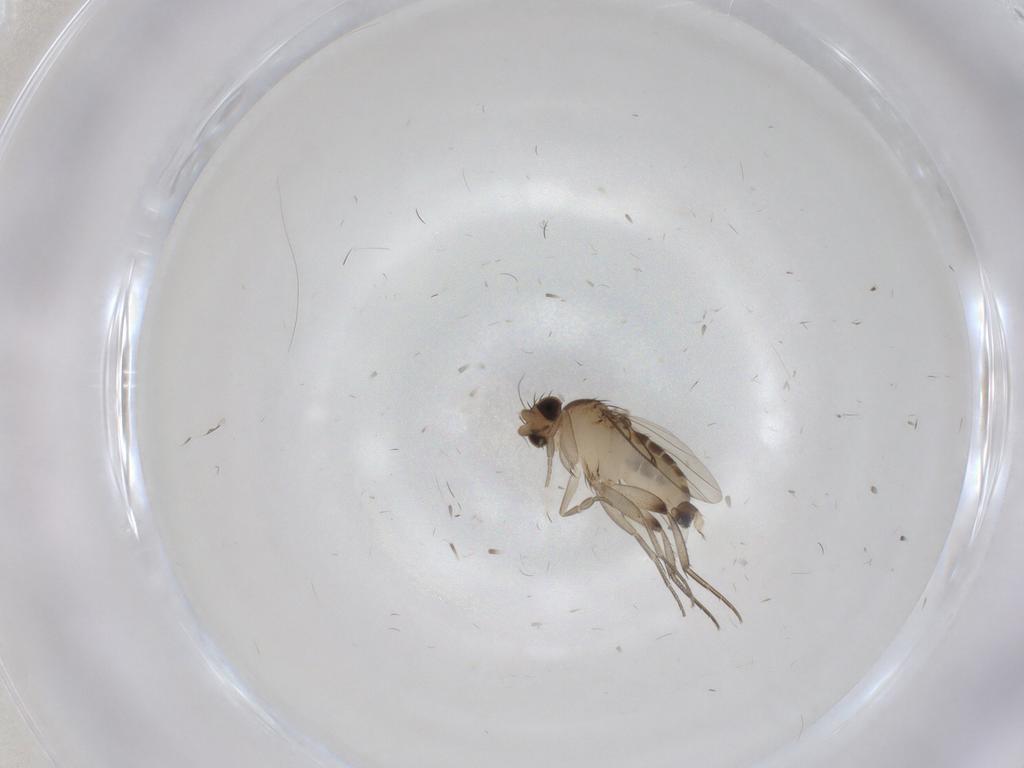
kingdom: Animalia
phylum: Arthropoda
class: Insecta
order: Diptera
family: Phoridae
